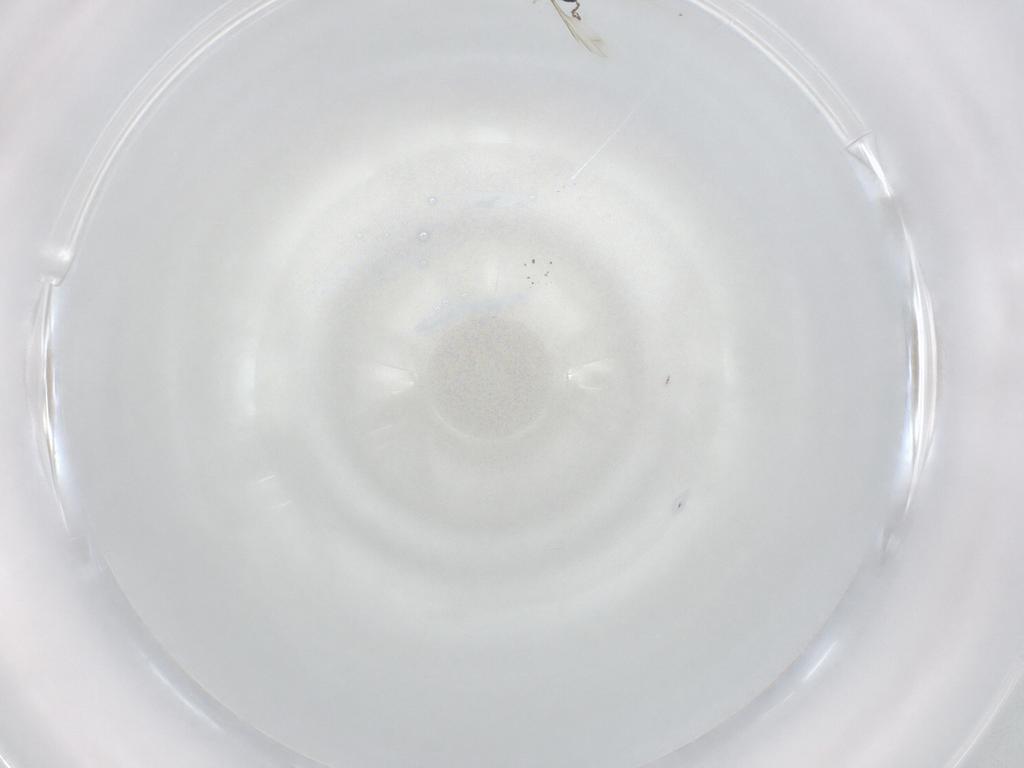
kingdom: Animalia
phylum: Arthropoda
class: Insecta
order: Diptera
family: Cecidomyiidae
